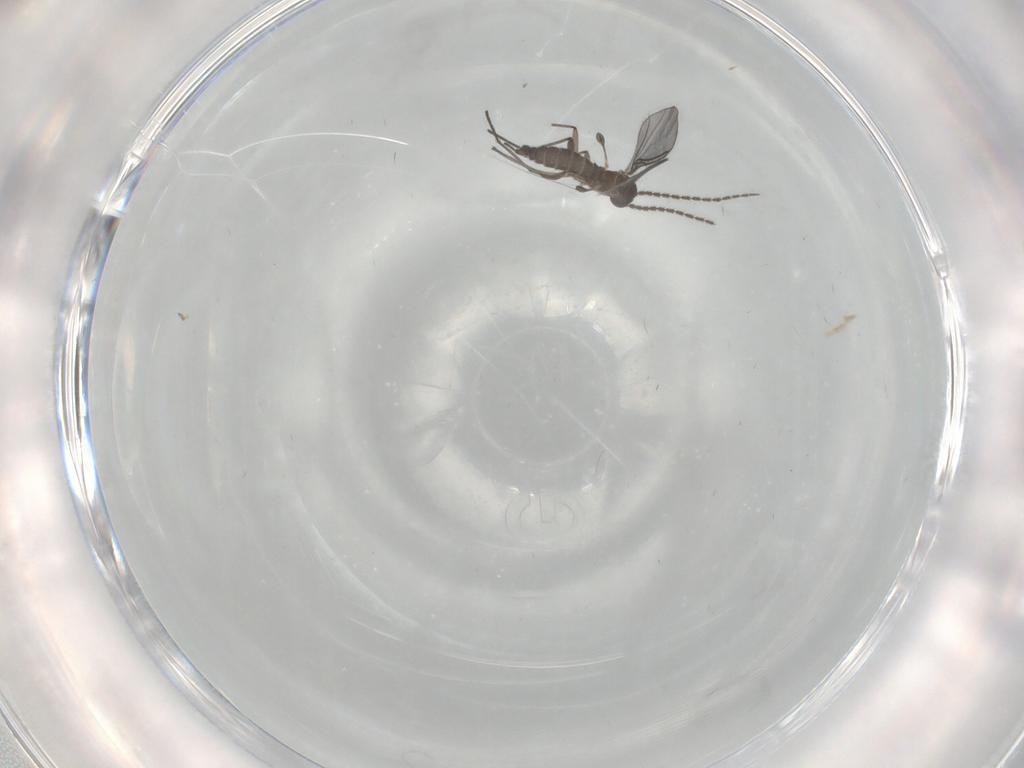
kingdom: Animalia
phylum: Arthropoda
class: Insecta
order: Diptera
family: Sciaridae
